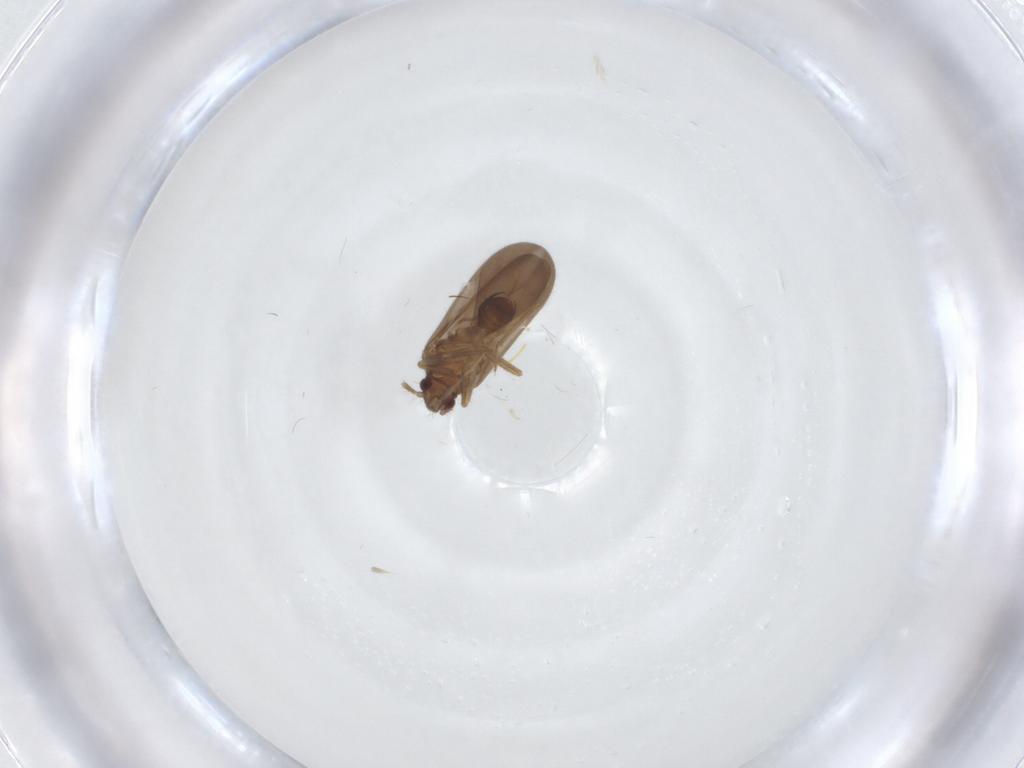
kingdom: Animalia
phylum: Arthropoda
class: Insecta
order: Hemiptera
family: Ceratocombidae
